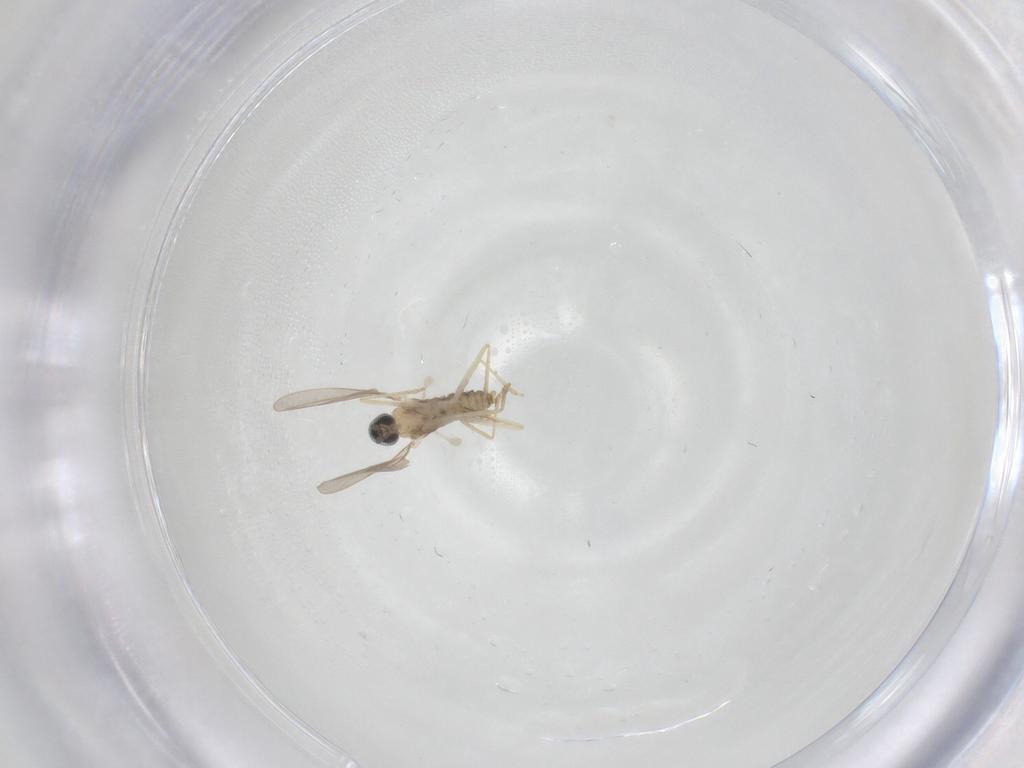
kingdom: Animalia
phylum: Arthropoda
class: Insecta
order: Diptera
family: Cecidomyiidae
